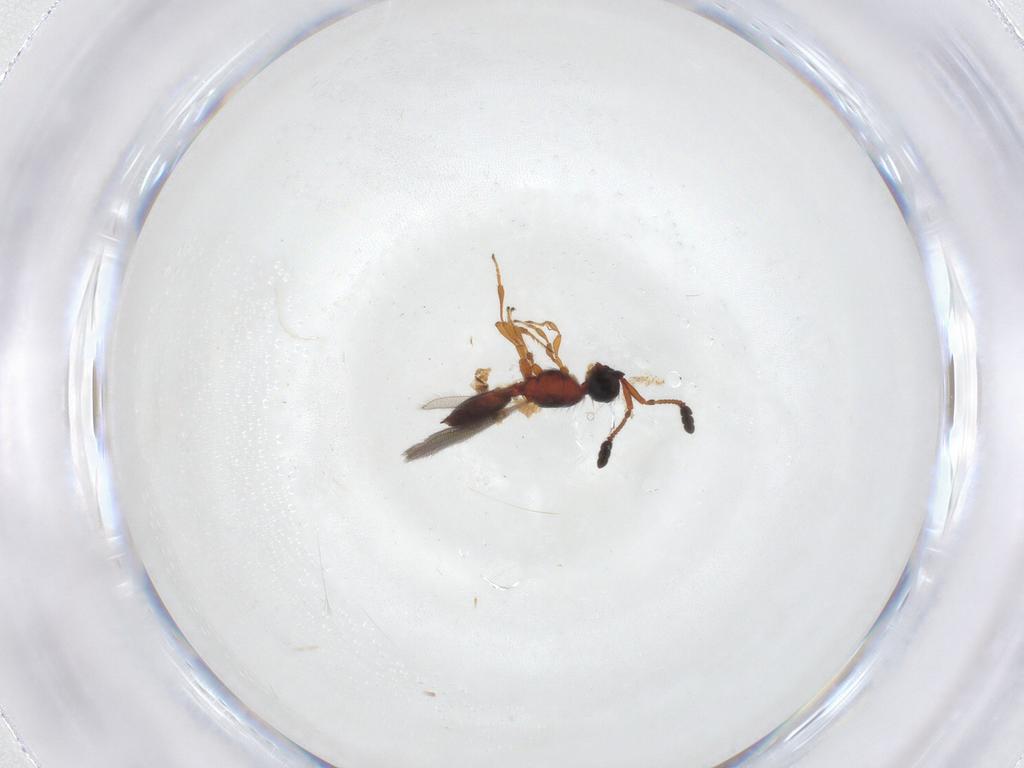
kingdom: Animalia
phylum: Arthropoda
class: Insecta
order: Hymenoptera
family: Diapriidae
